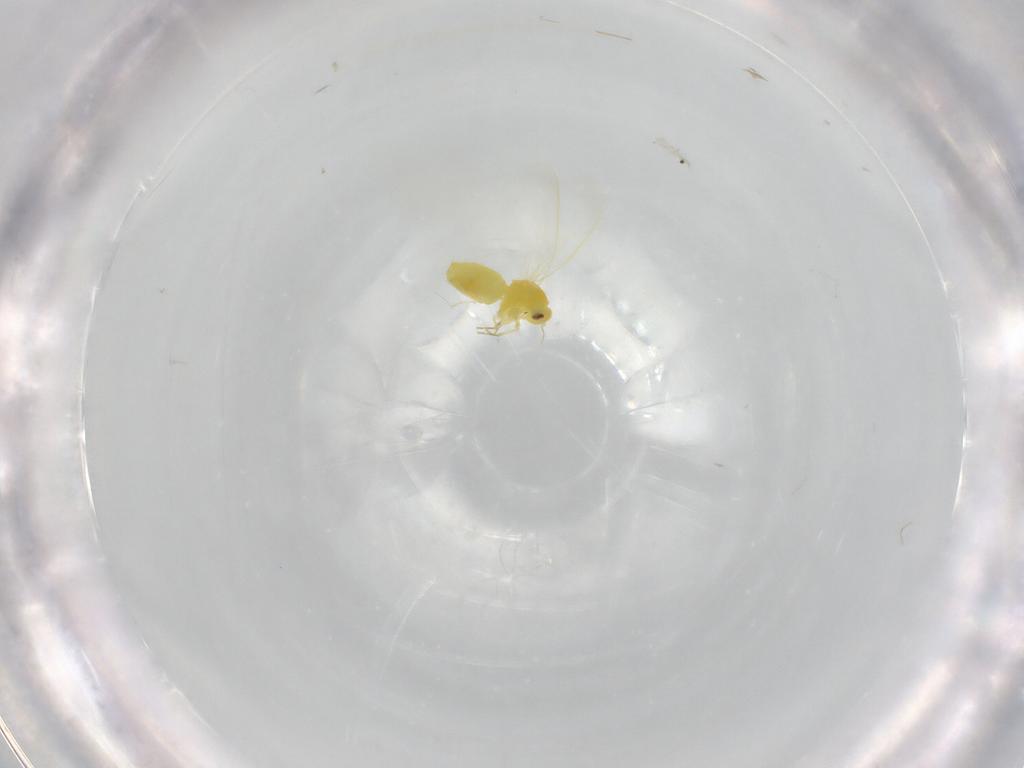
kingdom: Animalia
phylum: Arthropoda
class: Insecta
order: Hemiptera
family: Aleyrodidae
